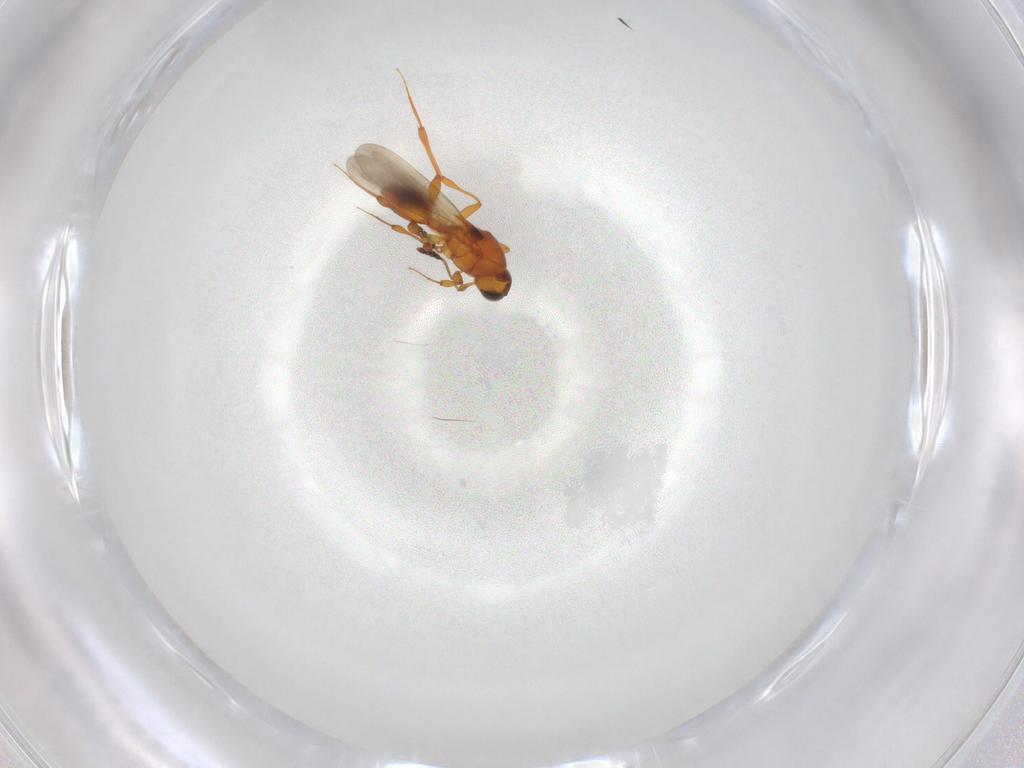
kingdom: Animalia
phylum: Arthropoda
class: Insecta
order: Hymenoptera
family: Platygastridae
